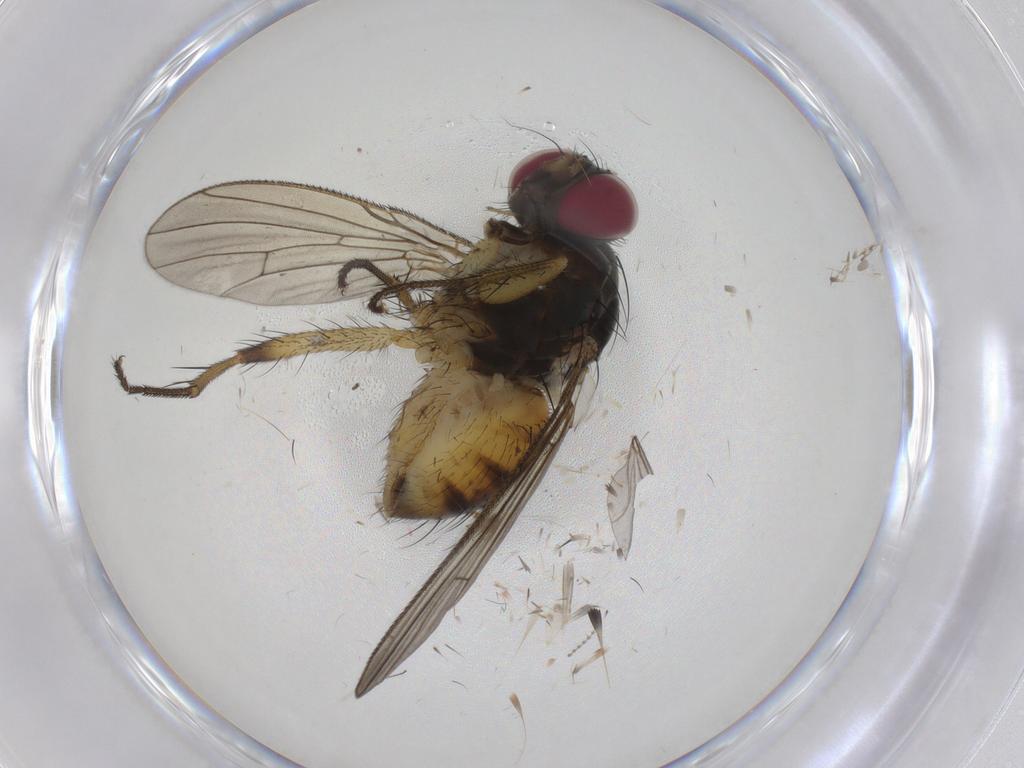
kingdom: Animalia
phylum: Arthropoda
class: Insecta
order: Diptera
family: Muscidae
